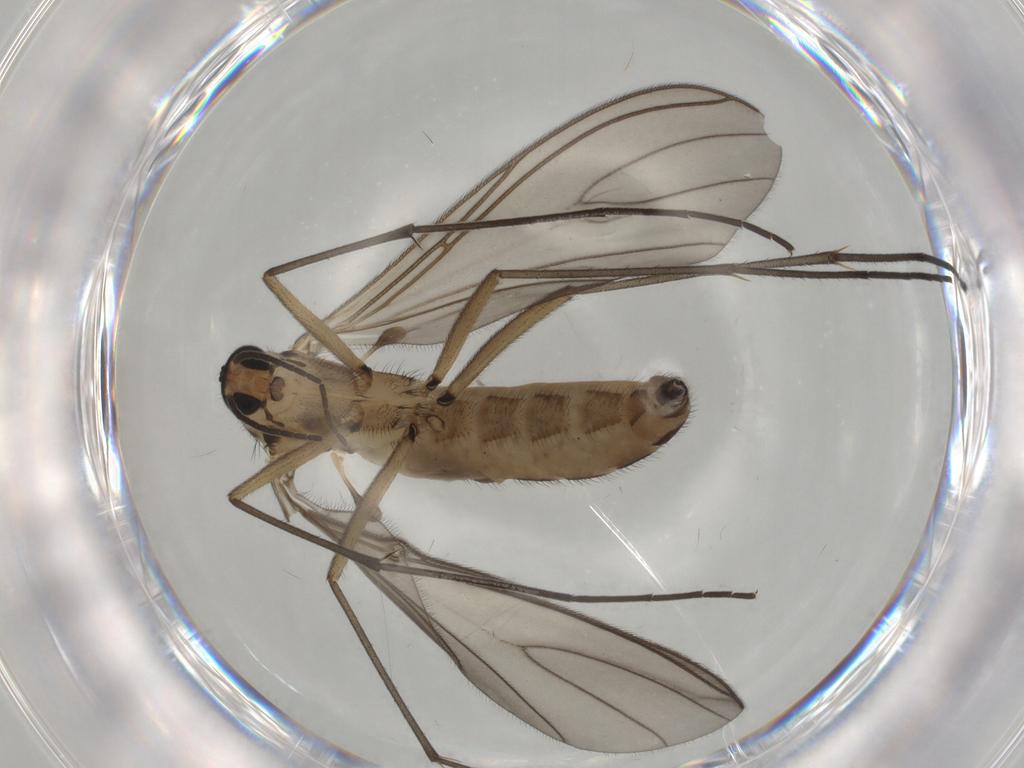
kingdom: Animalia
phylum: Arthropoda
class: Insecta
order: Diptera
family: Sciaridae
